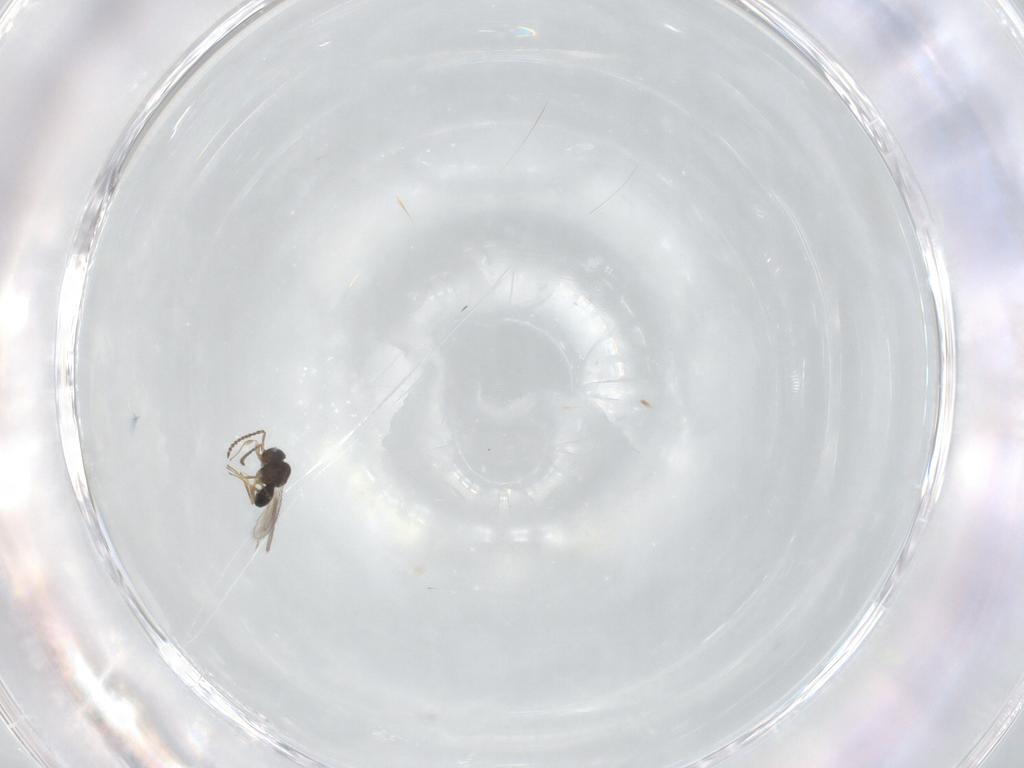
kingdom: Animalia
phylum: Arthropoda
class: Insecta
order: Hymenoptera
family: Scelionidae
